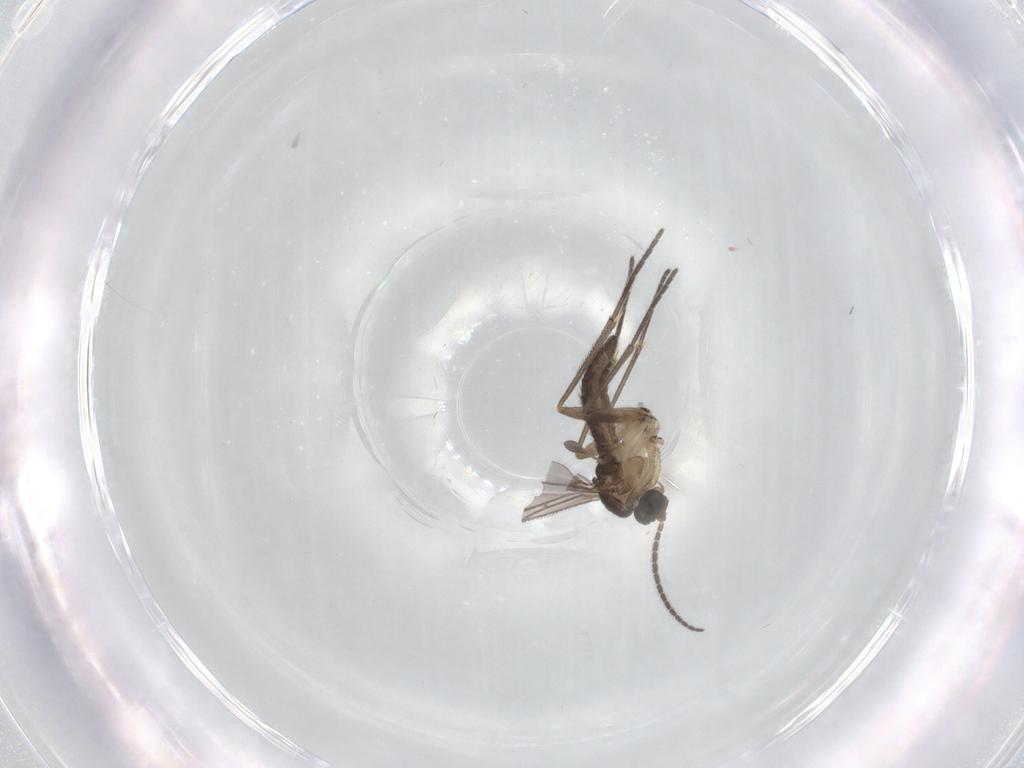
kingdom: Animalia
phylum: Arthropoda
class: Insecta
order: Diptera
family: Sciaridae
